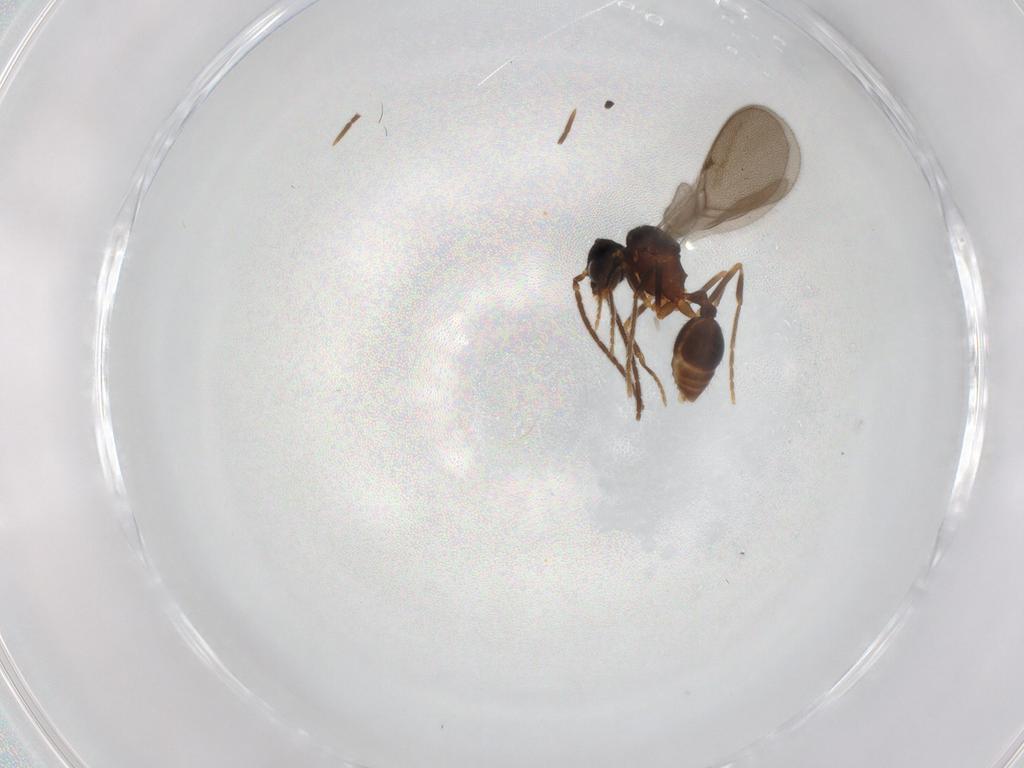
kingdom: Animalia
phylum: Arthropoda
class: Insecta
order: Hymenoptera
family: Formicidae
